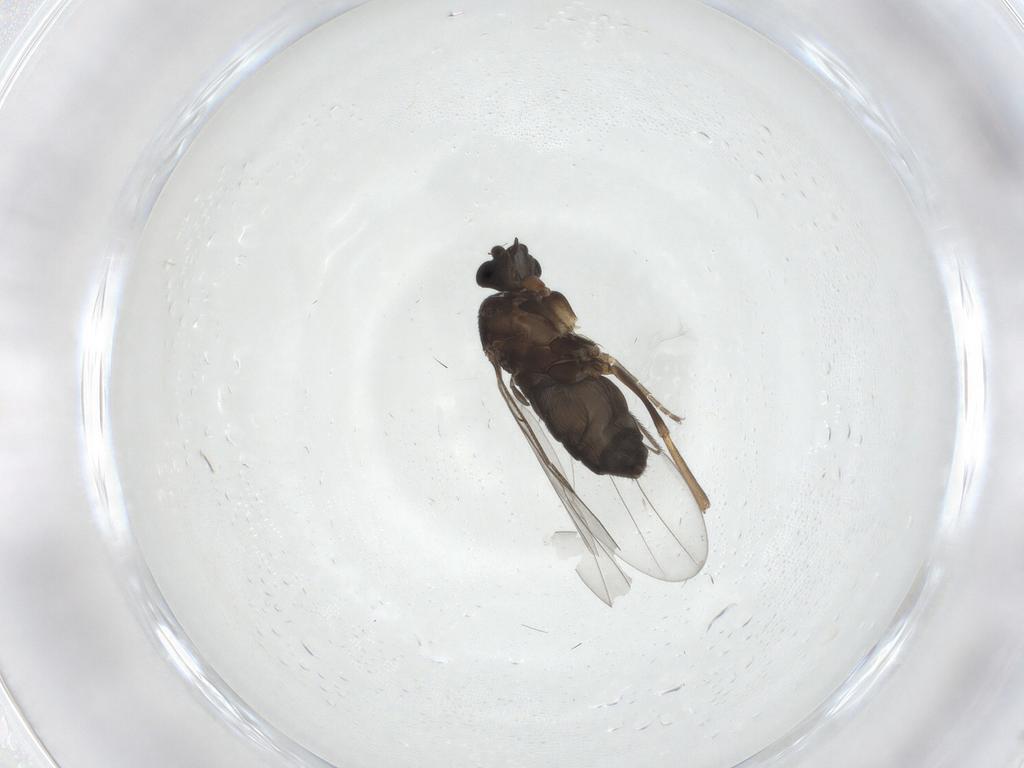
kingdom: Animalia
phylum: Arthropoda
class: Insecta
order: Diptera
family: Phoridae
